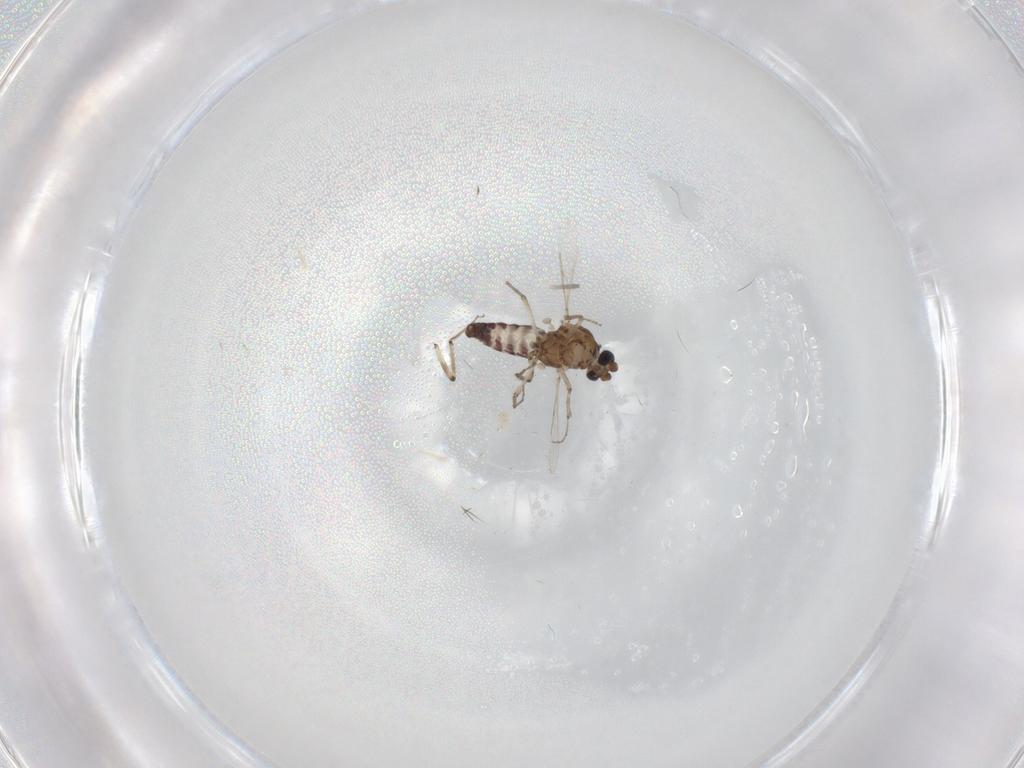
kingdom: Animalia
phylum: Arthropoda
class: Insecta
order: Diptera
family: Ceratopogonidae
